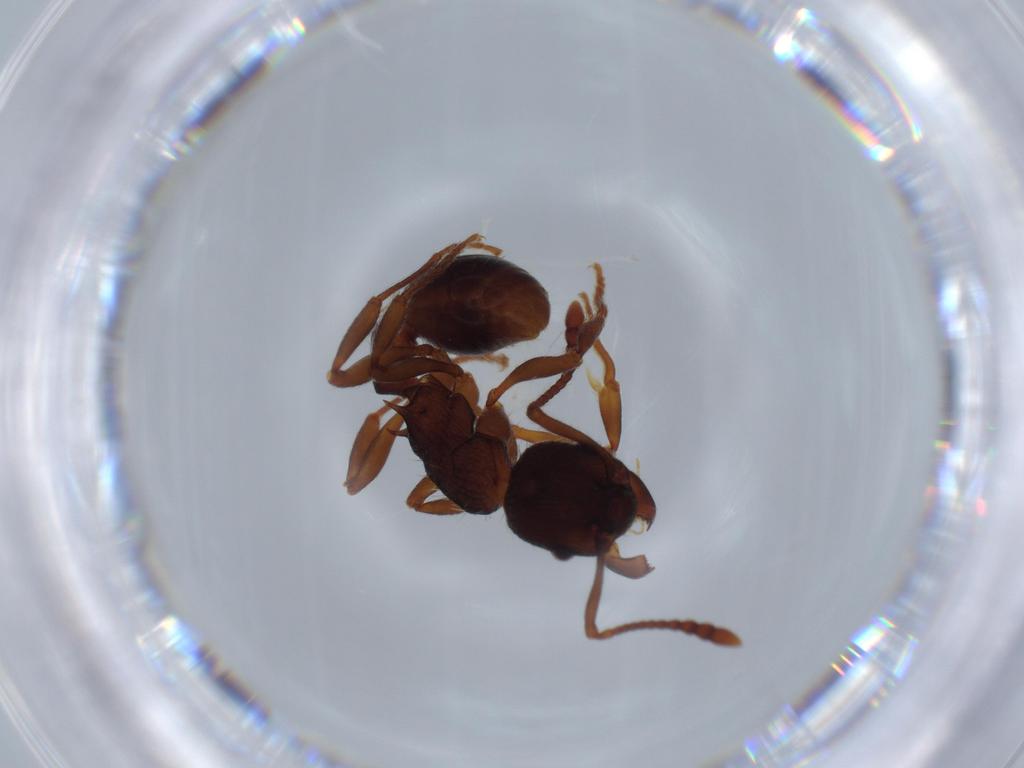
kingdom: Animalia
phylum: Arthropoda
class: Insecta
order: Hymenoptera
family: Formicidae
